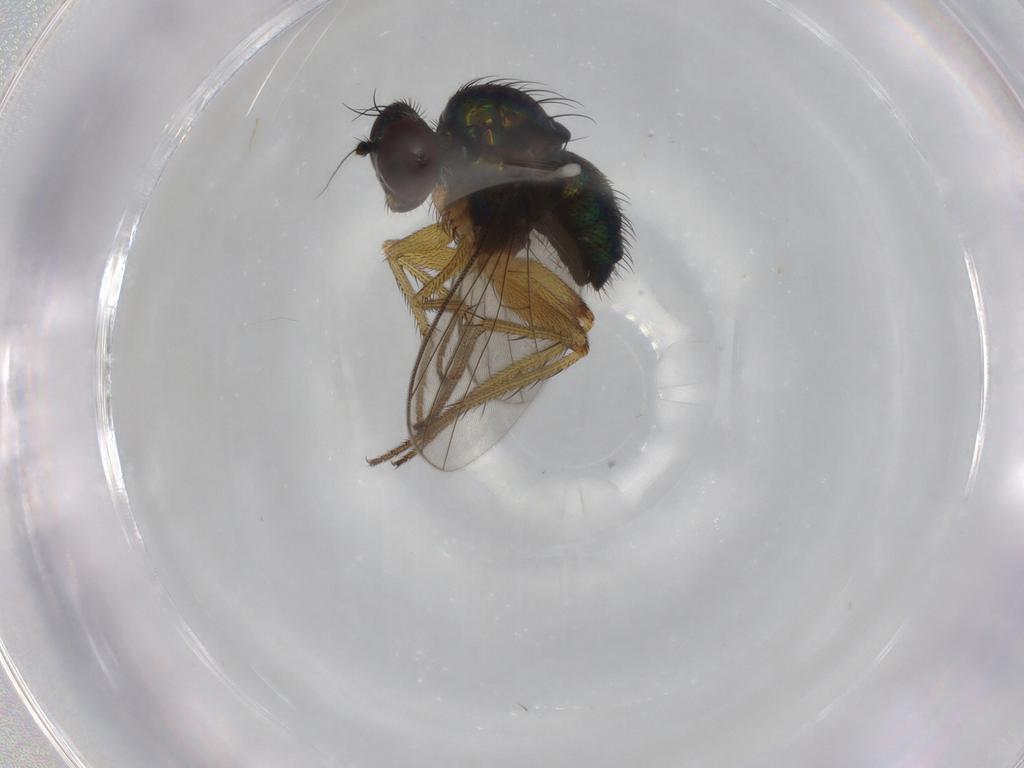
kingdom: Animalia
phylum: Arthropoda
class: Insecta
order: Diptera
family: Dolichopodidae
